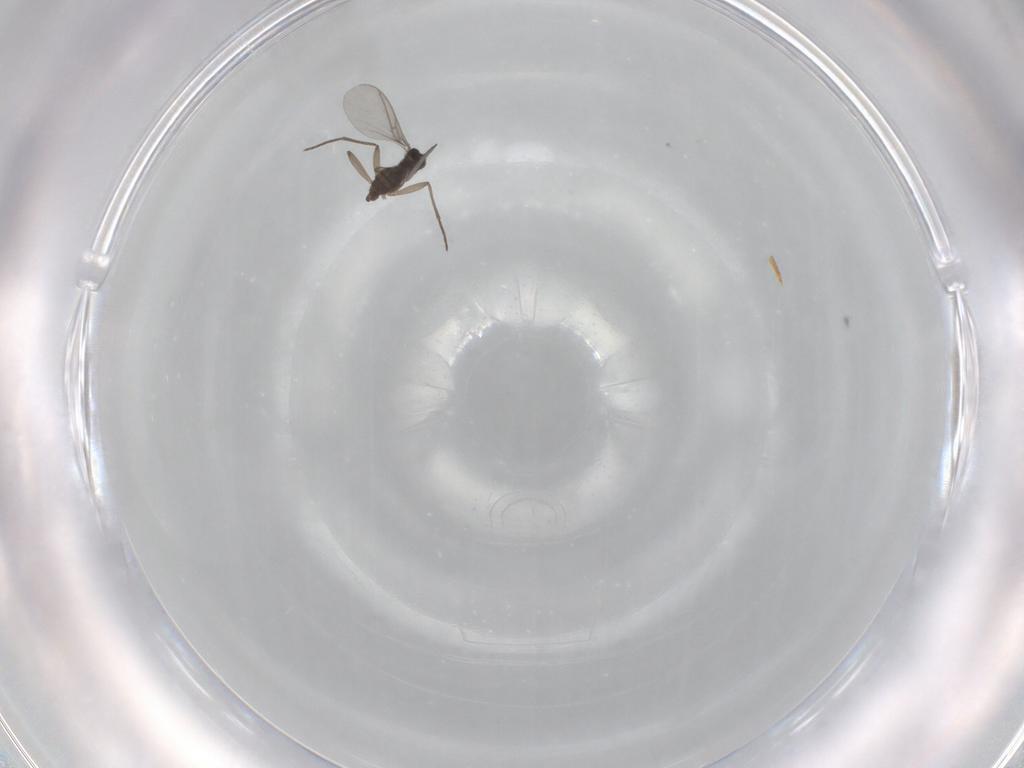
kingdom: Animalia
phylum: Arthropoda
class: Insecta
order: Diptera
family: Sciaridae
